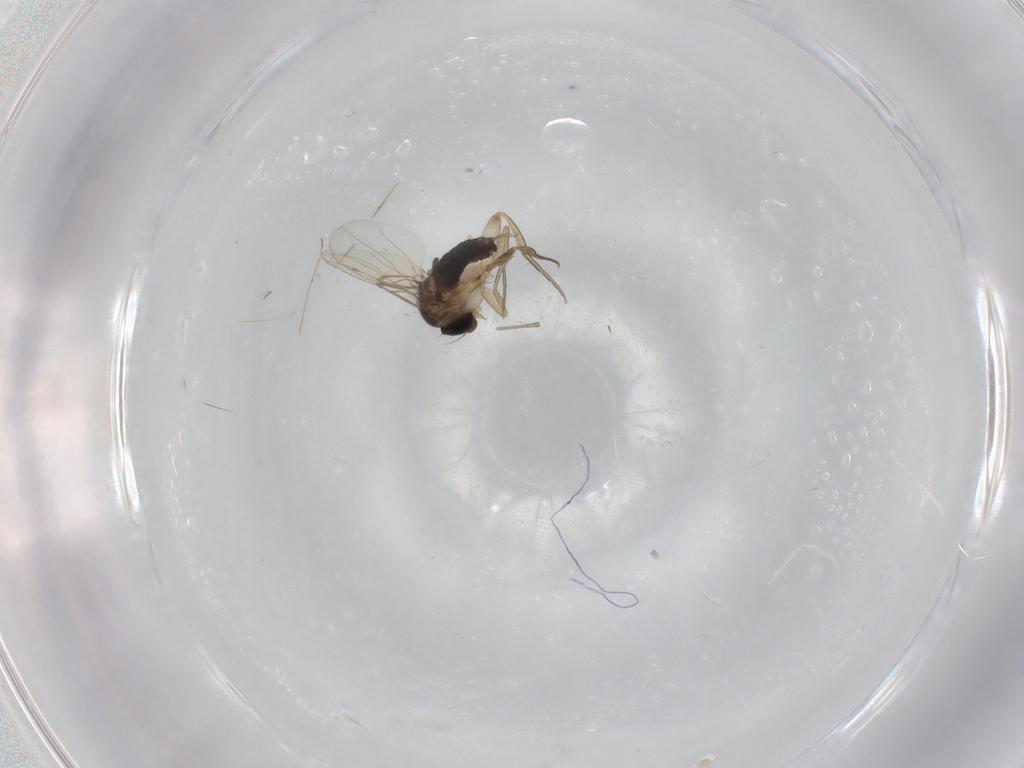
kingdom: Animalia
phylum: Arthropoda
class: Insecta
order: Diptera
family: Phoridae
